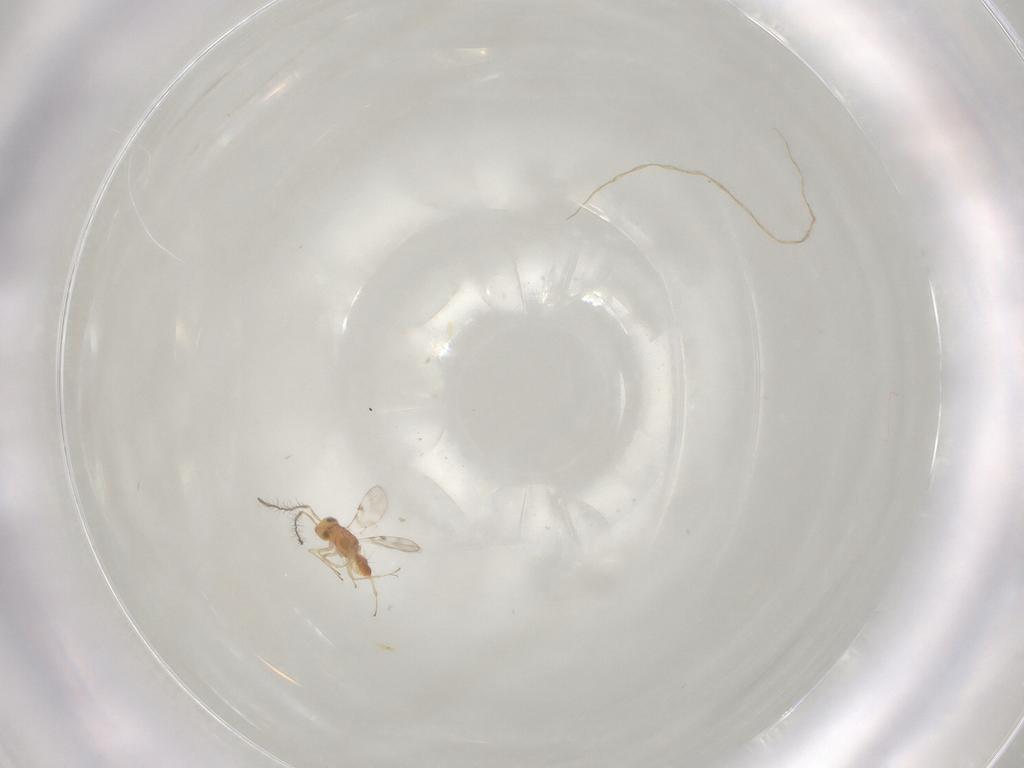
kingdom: Animalia
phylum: Arthropoda
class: Insecta
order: Hymenoptera
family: Encyrtidae
